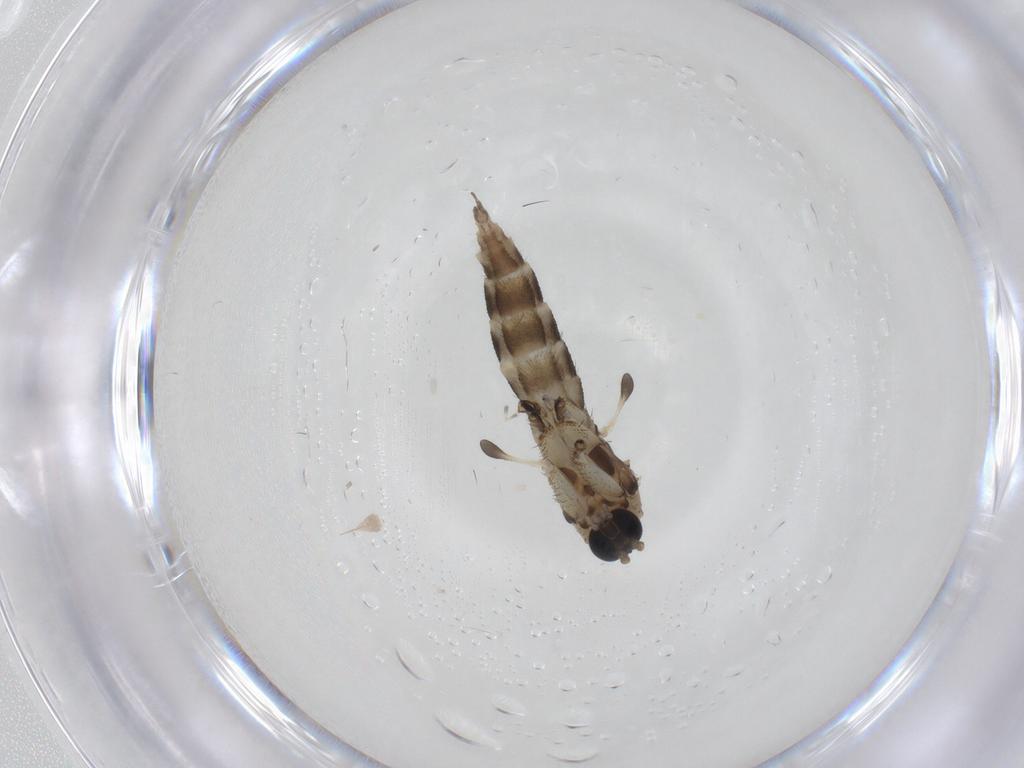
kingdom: Animalia
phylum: Arthropoda
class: Insecta
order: Diptera
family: Sciaridae
